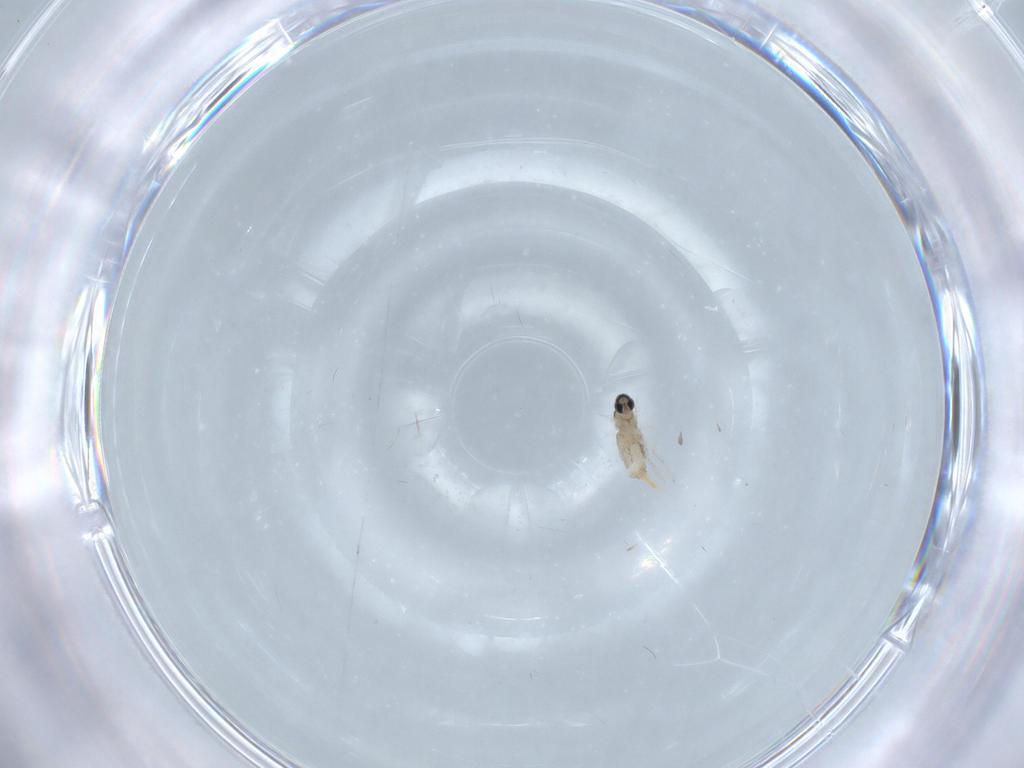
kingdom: Animalia
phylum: Arthropoda
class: Insecta
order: Diptera
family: Cecidomyiidae
